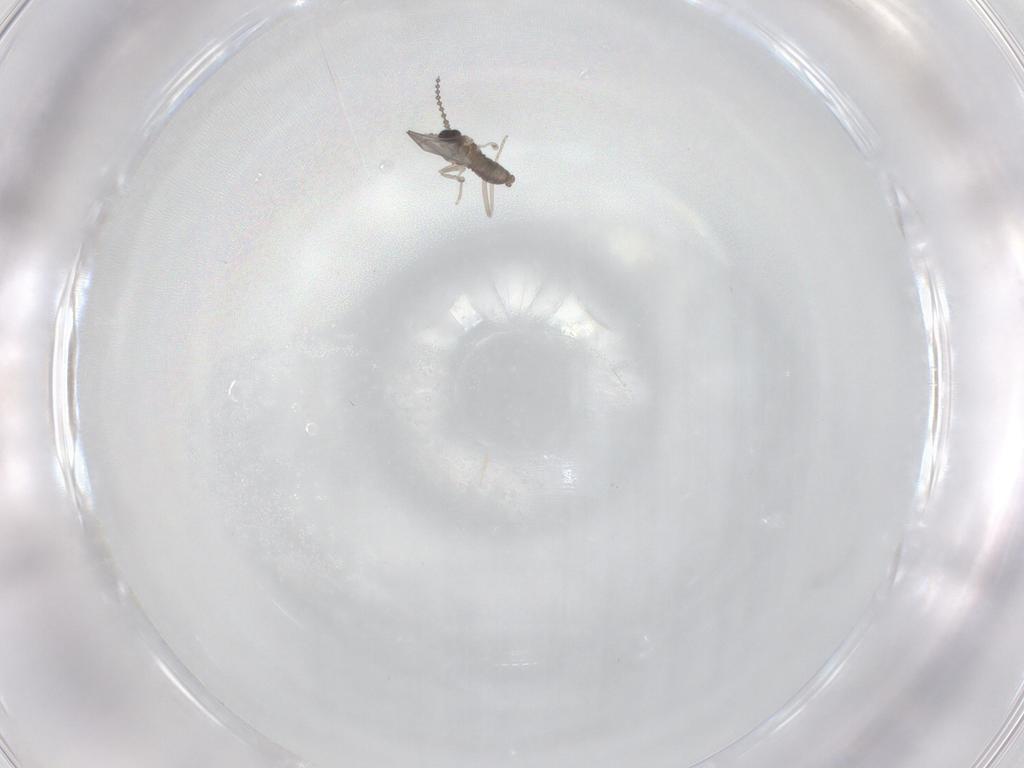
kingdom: Animalia
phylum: Arthropoda
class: Insecta
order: Diptera
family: Cecidomyiidae
